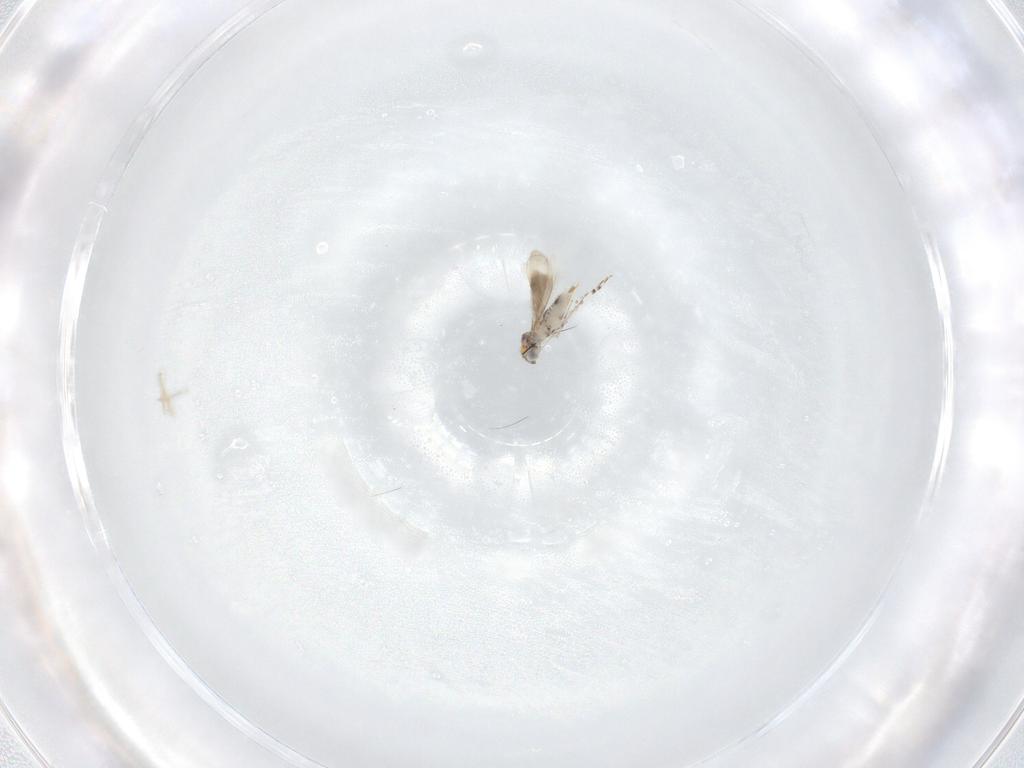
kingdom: Animalia
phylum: Arthropoda
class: Insecta
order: Hymenoptera
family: Aphelinidae
